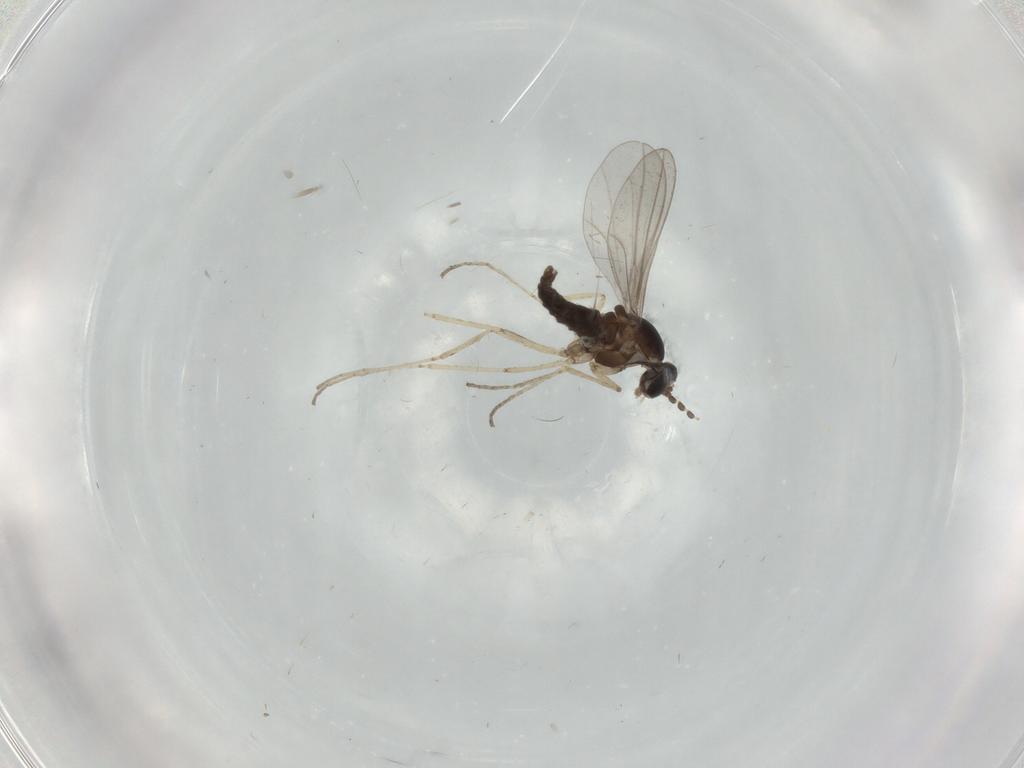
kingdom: Animalia
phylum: Arthropoda
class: Insecta
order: Diptera
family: Cecidomyiidae
